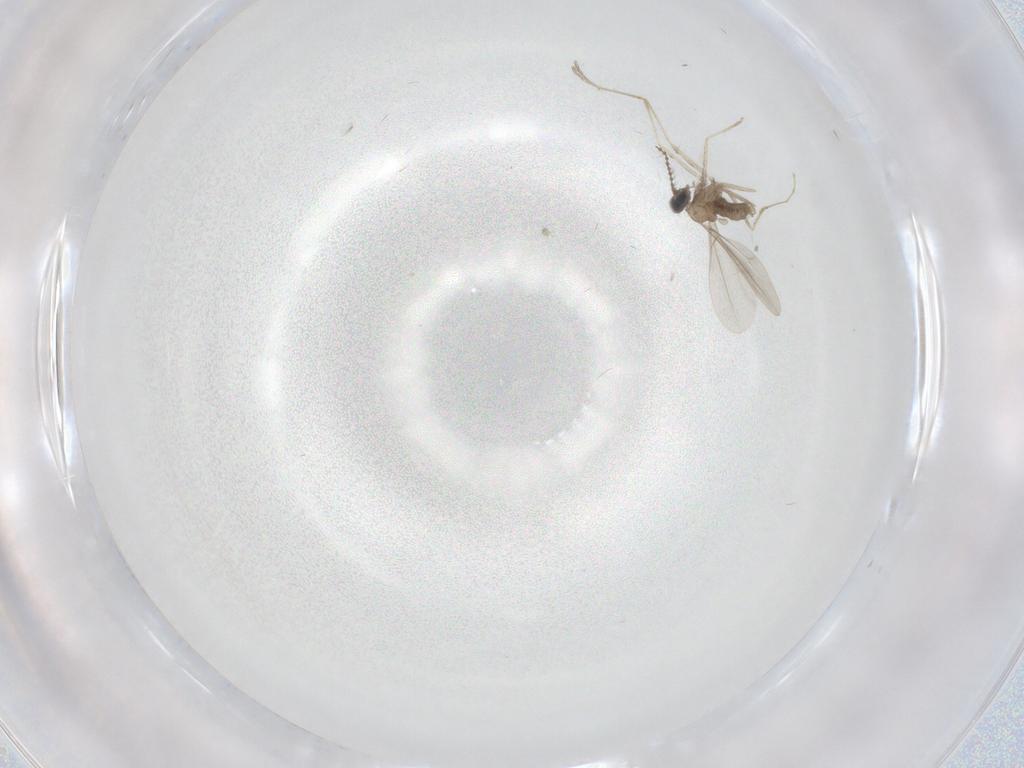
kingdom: Animalia
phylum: Arthropoda
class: Insecta
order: Diptera
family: Cecidomyiidae
